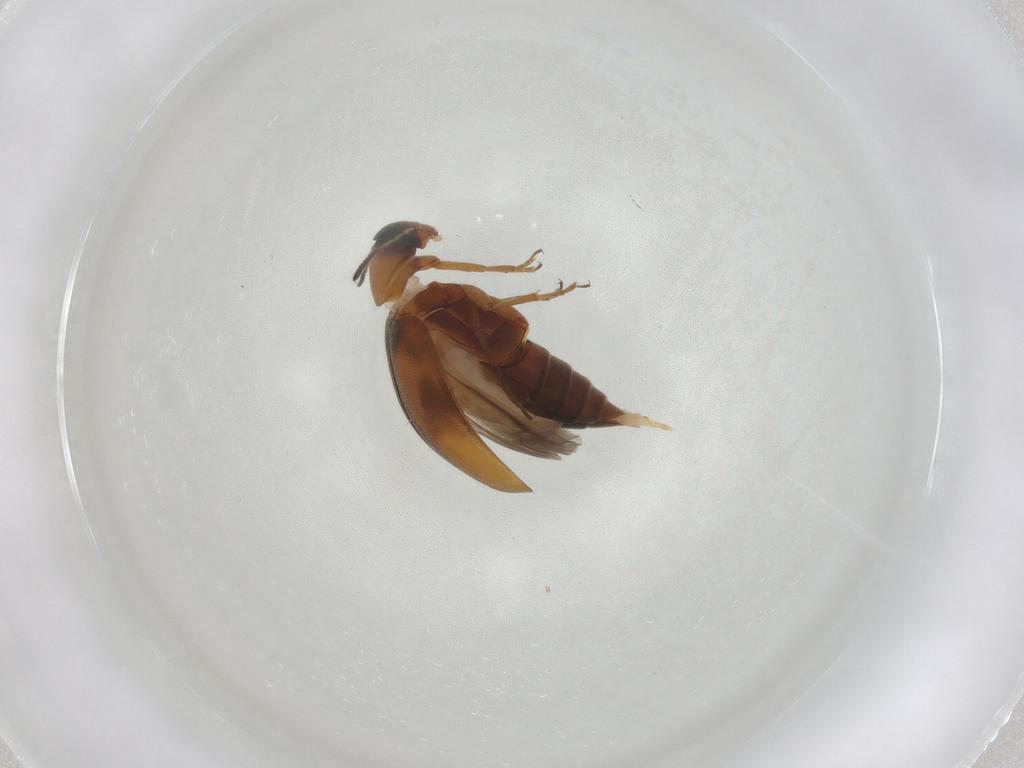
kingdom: Animalia
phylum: Arthropoda
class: Insecta
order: Coleoptera
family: Scraptiidae
